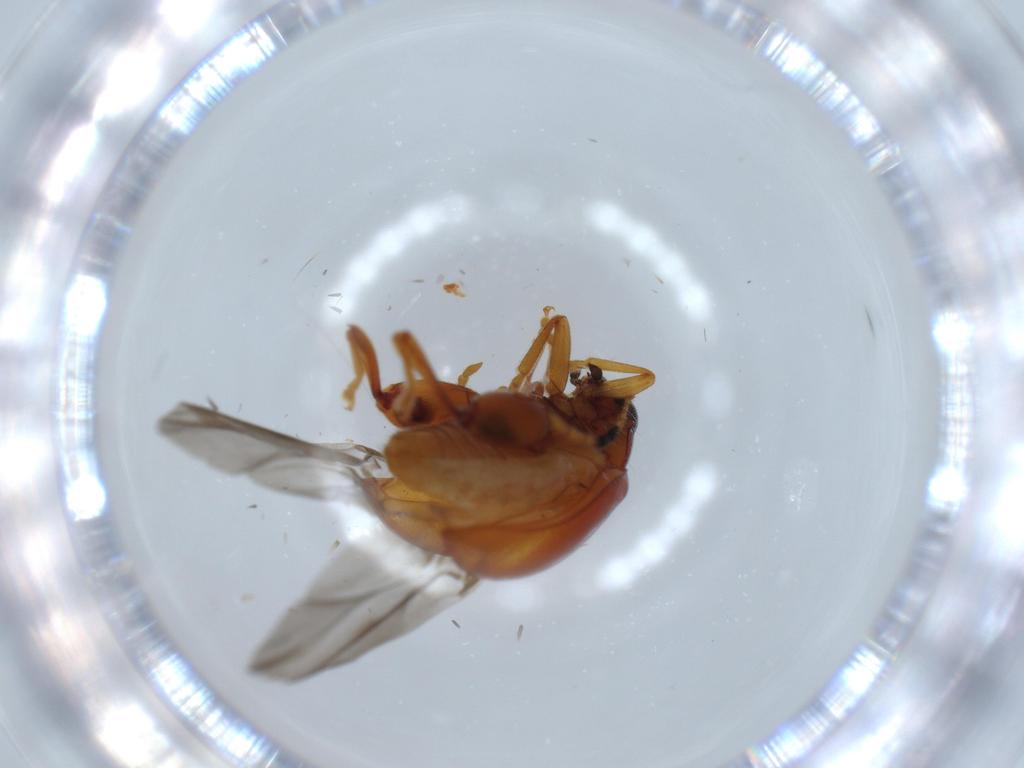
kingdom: Animalia
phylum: Arthropoda
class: Insecta
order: Coleoptera
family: Chrysomelidae
